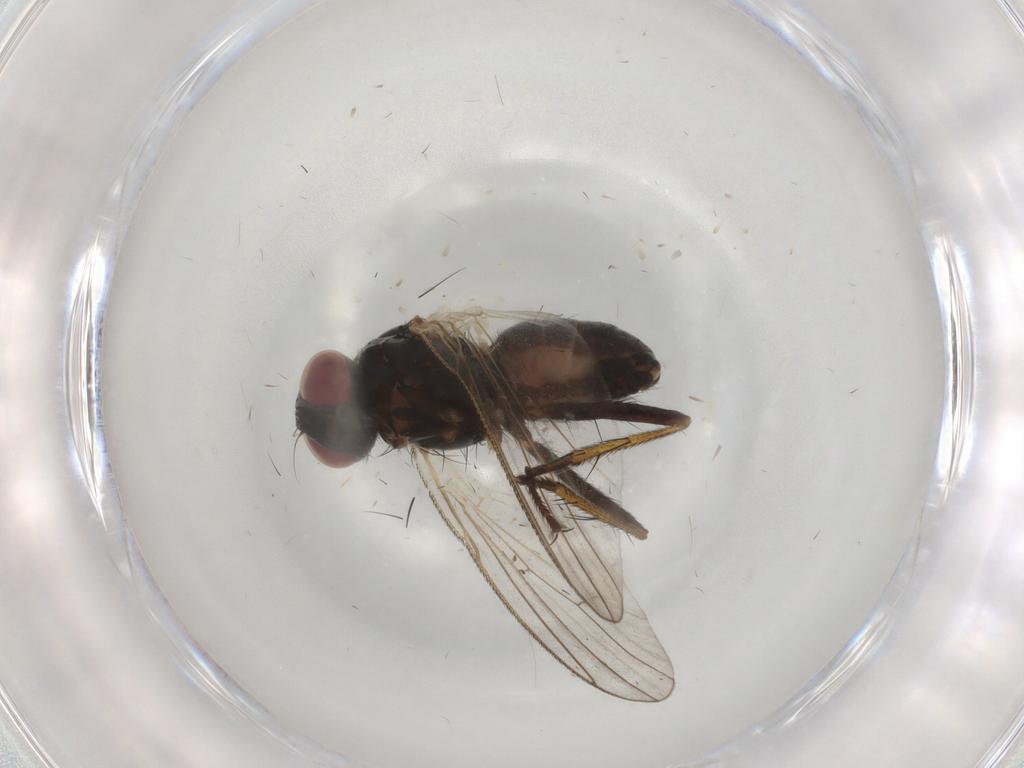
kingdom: Animalia
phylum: Arthropoda
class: Insecta
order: Diptera
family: Muscidae
